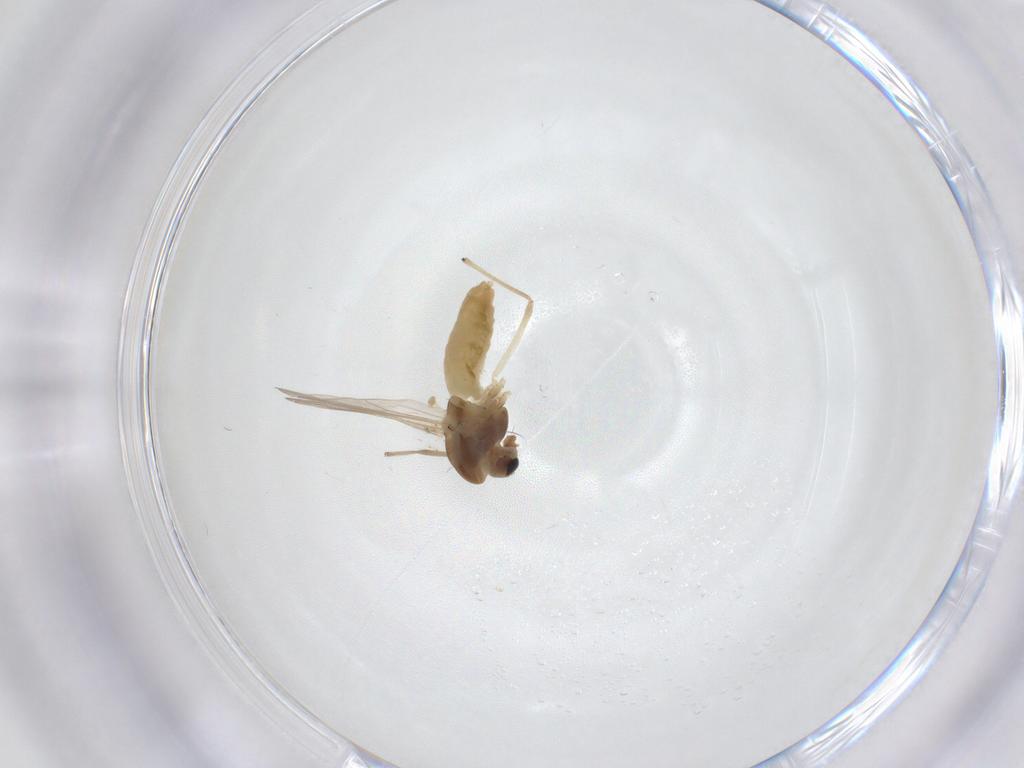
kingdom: Animalia
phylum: Arthropoda
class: Insecta
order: Diptera
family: Chironomidae
